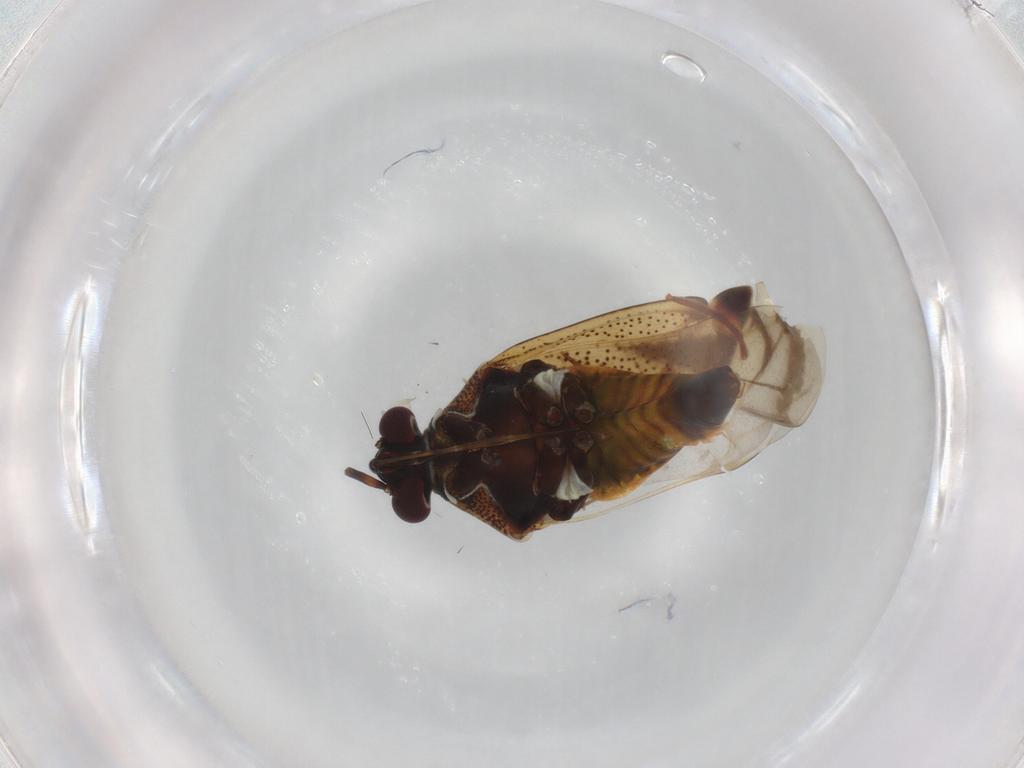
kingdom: Animalia
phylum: Arthropoda
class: Insecta
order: Hemiptera
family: Miridae
